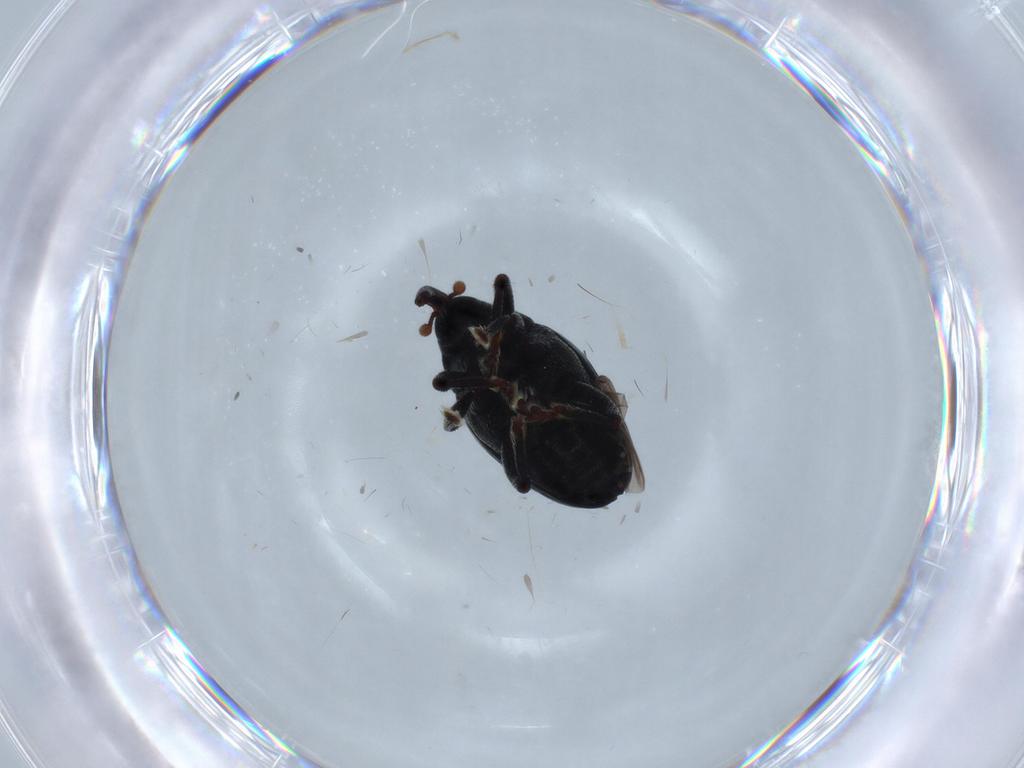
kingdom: Animalia
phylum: Arthropoda
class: Insecta
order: Coleoptera
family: Curculionidae
